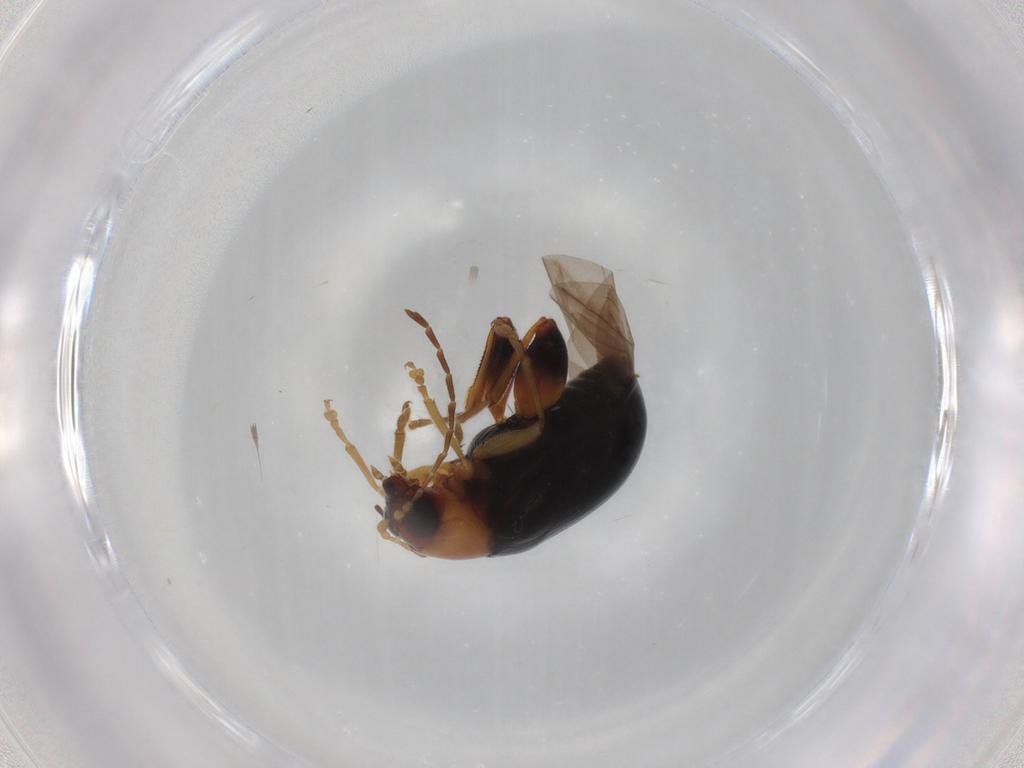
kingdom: Animalia
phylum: Arthropoda
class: Insecta
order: Coleoptera
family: Chrysomelidae
